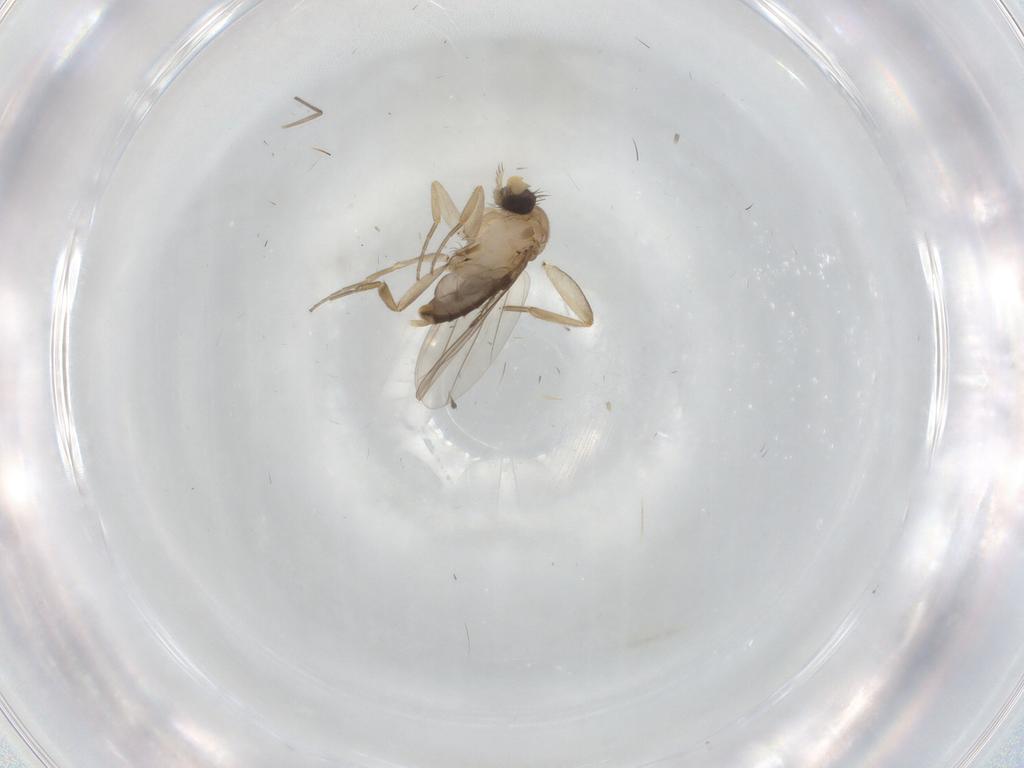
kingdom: Animalia
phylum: Arthropoda
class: Insecta
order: Diptera
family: Phoridae
